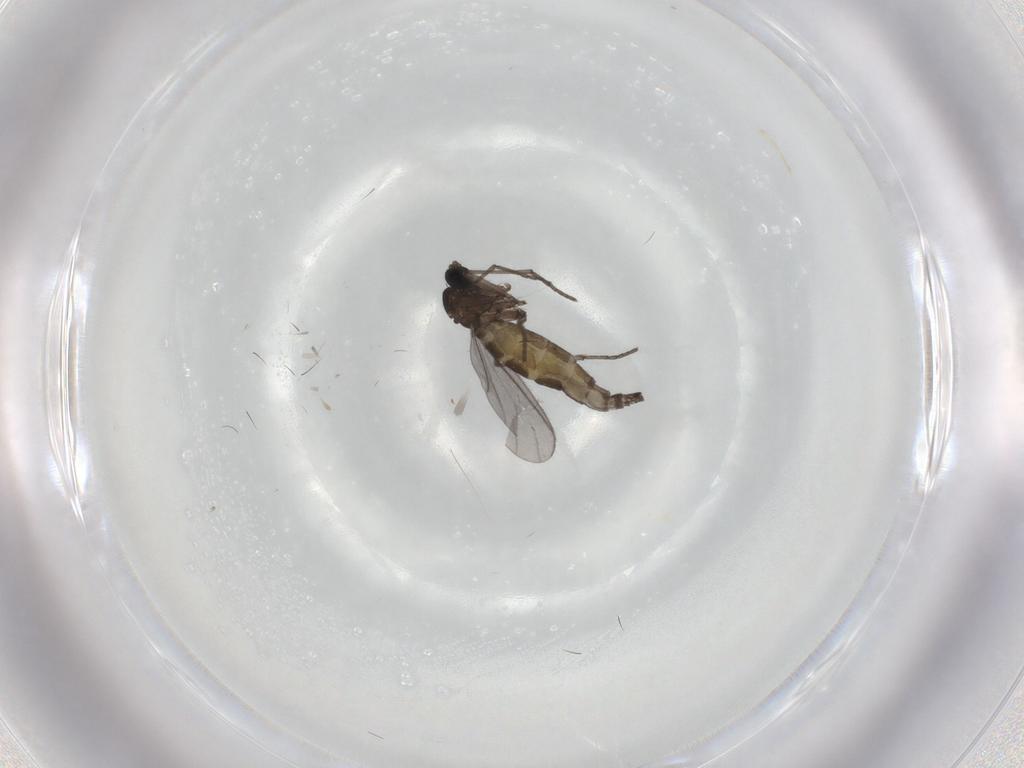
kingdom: Animalia
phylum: Arthropoda
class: Insecta
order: Diptera
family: Sciaridae
